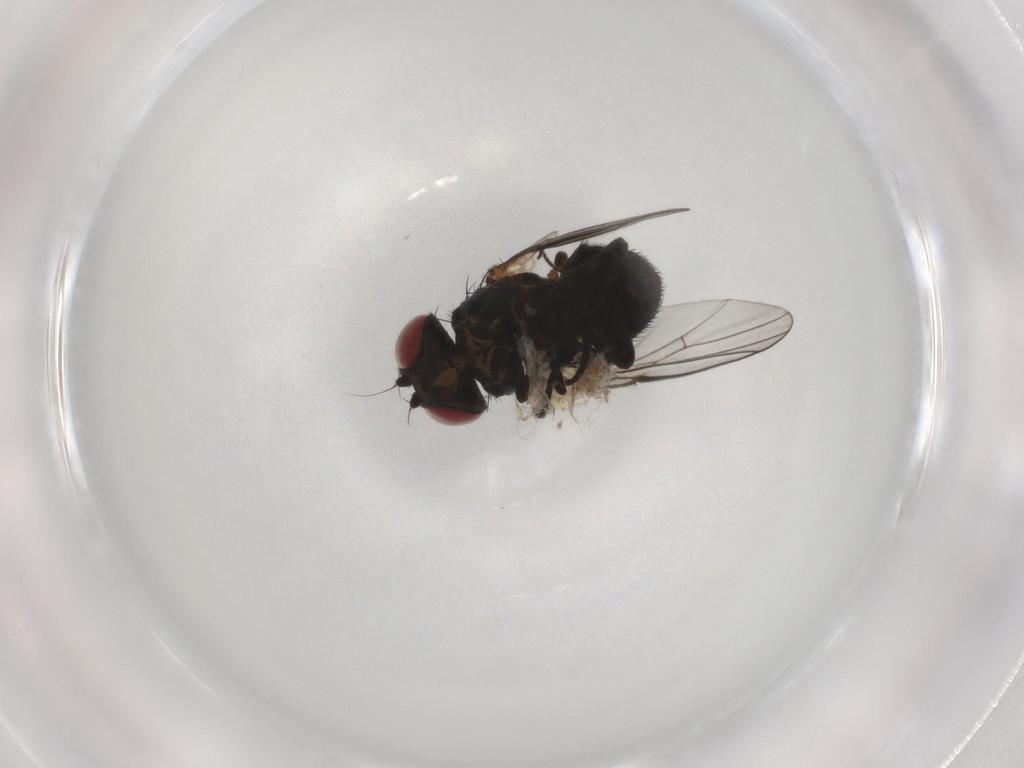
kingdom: Animalia
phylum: Arthropoda
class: Insecta
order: Diptera
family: Agromyzidae
